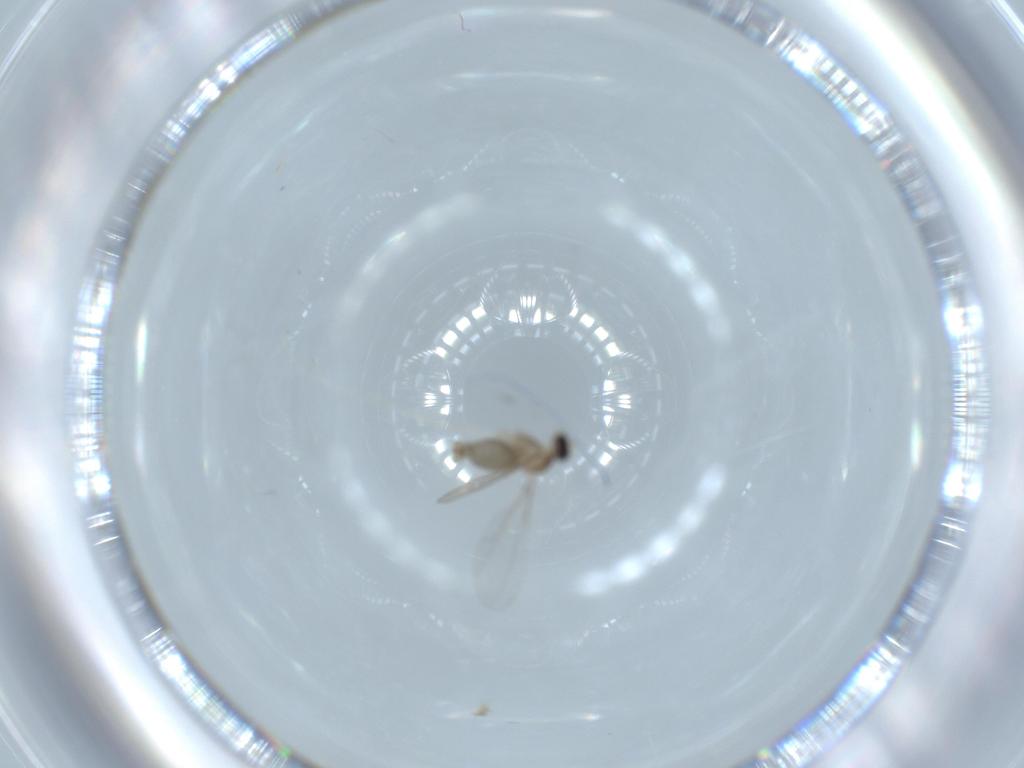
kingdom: Animalia
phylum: Arthropoda
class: Insecta
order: Diptera
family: Cecidomyiidae
